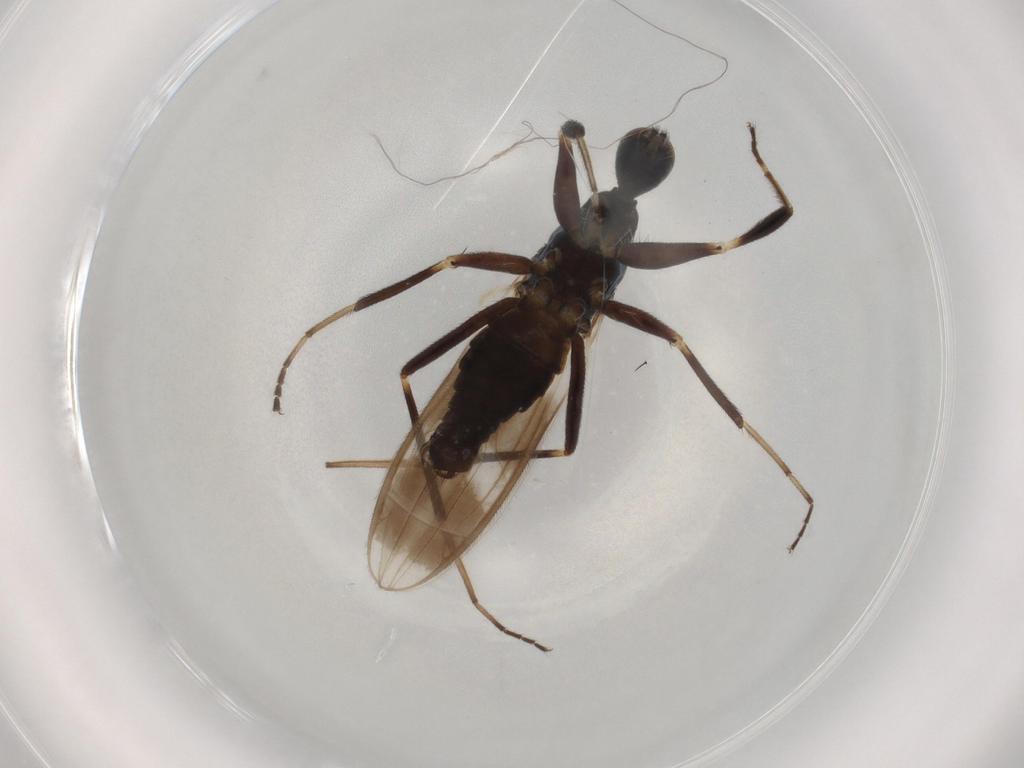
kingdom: Animalia
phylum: Arthropoda
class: Insecta
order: Diptera
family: Hybotidae
